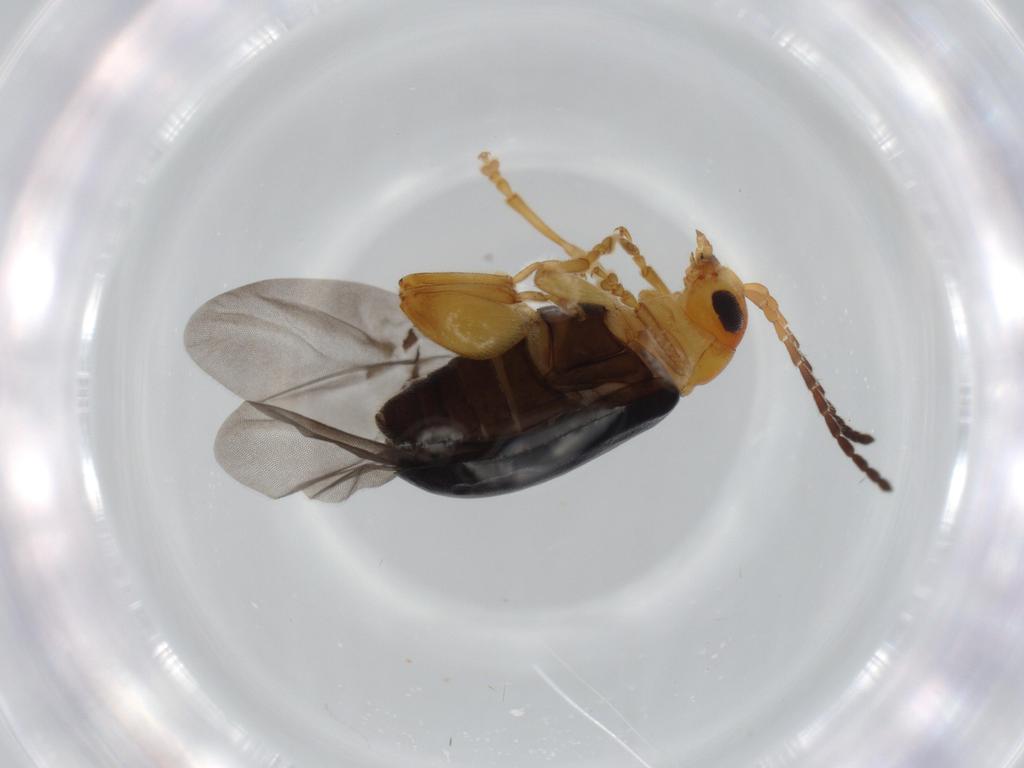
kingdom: Animalia
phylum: Arthropoda
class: Insecta
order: Coleoptera
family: Chrysomelidae
